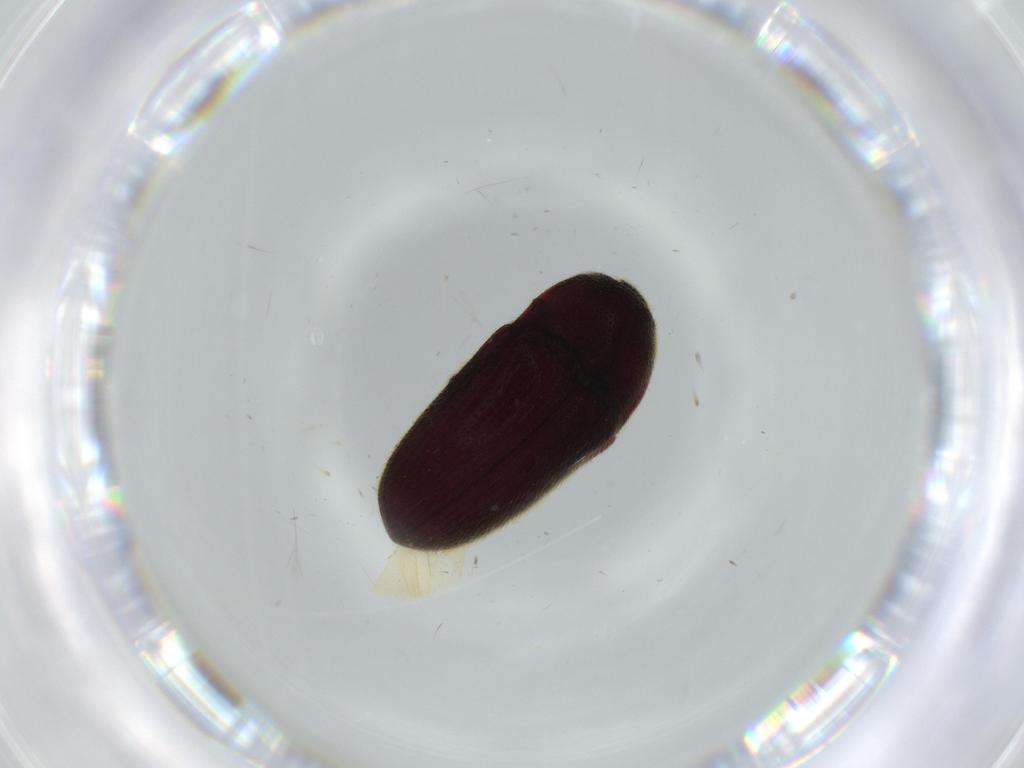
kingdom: Animalia
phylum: Arthropoda
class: Insecta
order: Coleoptera
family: Throscidae
